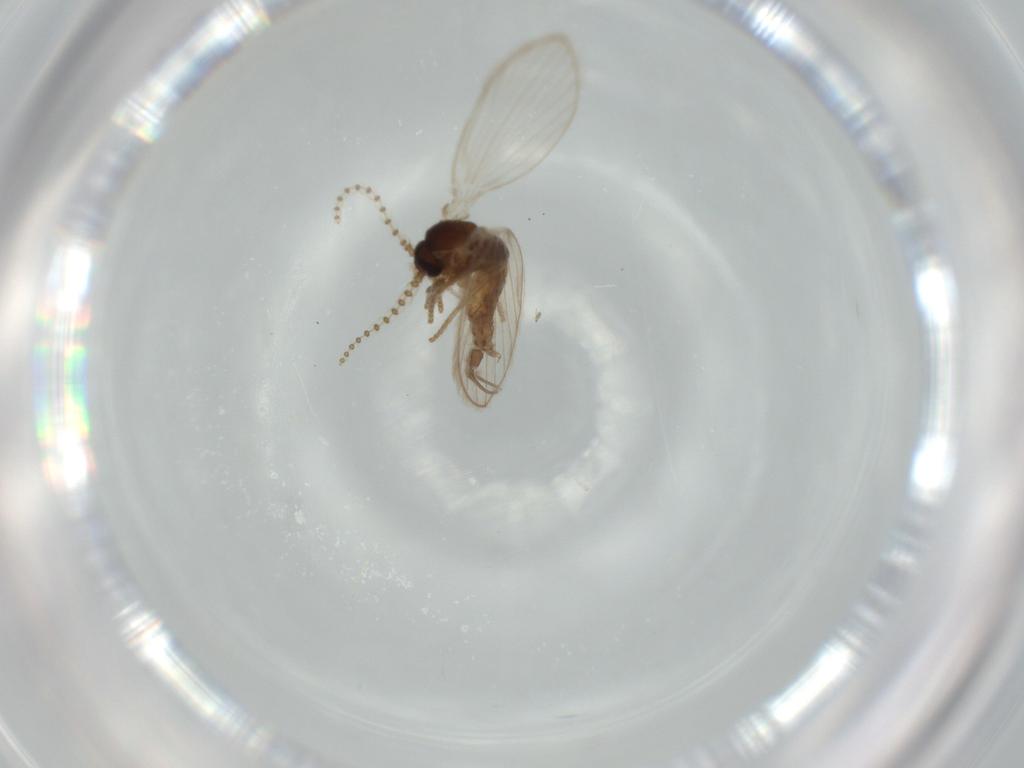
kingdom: Animalia
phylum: Arthropoda
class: Insecta
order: Diptera
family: Psychodidae
